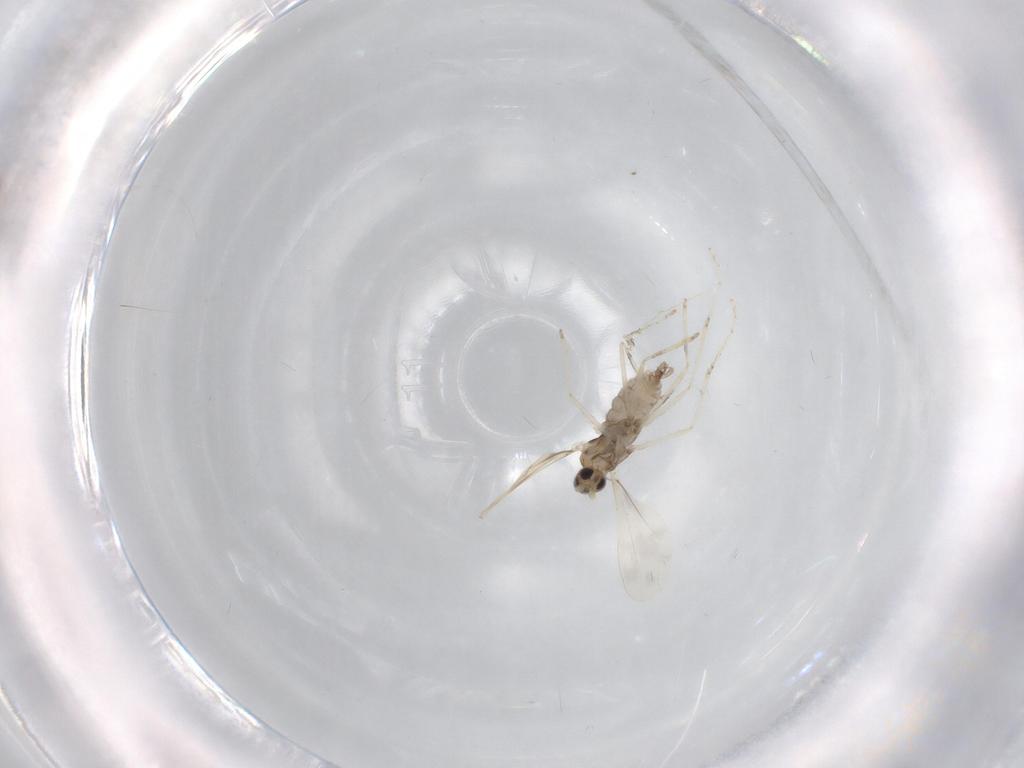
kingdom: Animalia
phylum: Arthropoda
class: Insecta
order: Diptera
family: Cecidomyiidae
